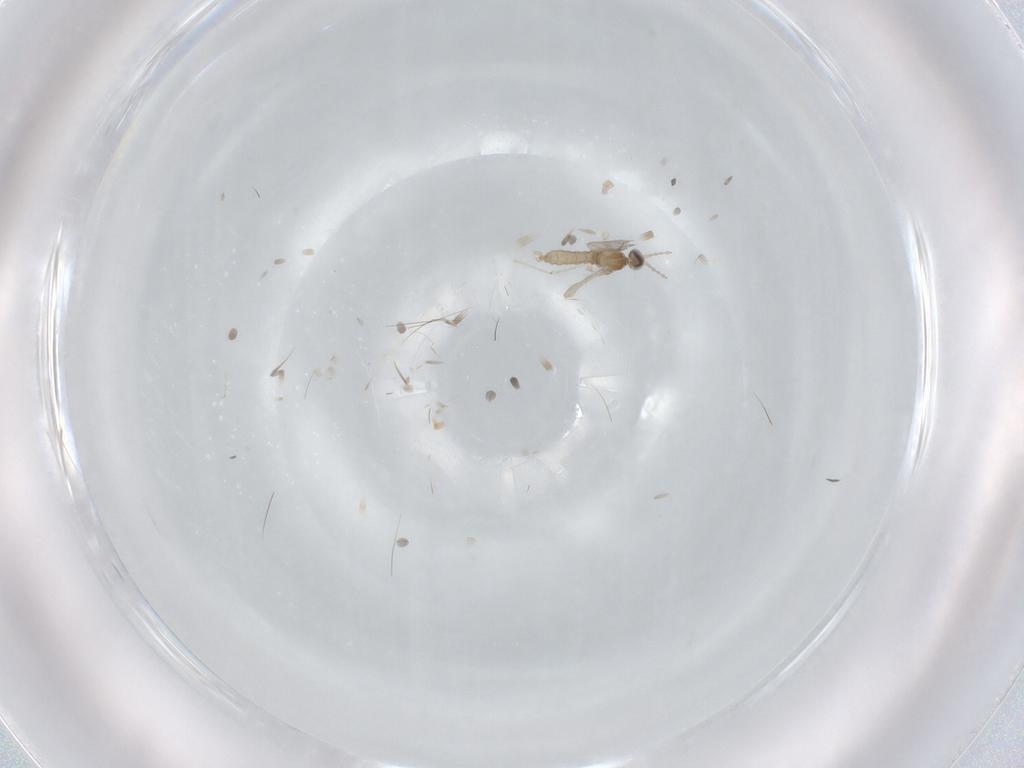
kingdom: Animalia
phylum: Arthropoda
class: Insecta
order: Diptera
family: Cecidomyiidae
